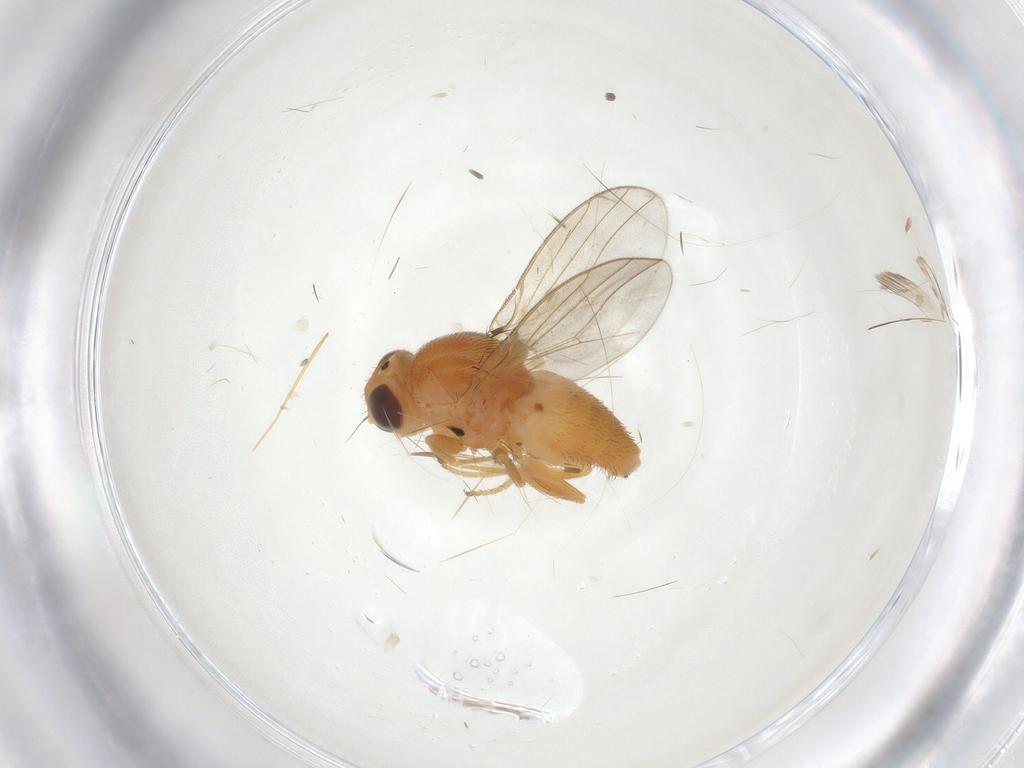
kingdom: Animalia
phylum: Arthropoda
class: Insecta
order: Diptera
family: Chloropidae
